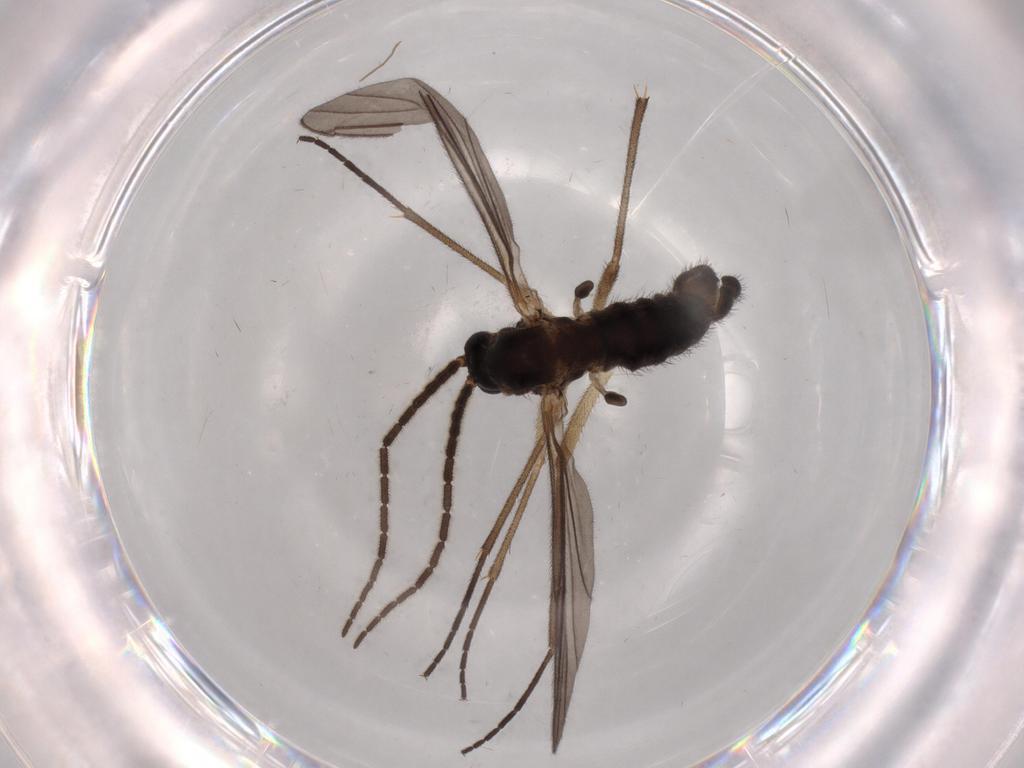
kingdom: Animalia
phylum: Arthropoda
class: Insecta
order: Diptera
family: Sciaridae
